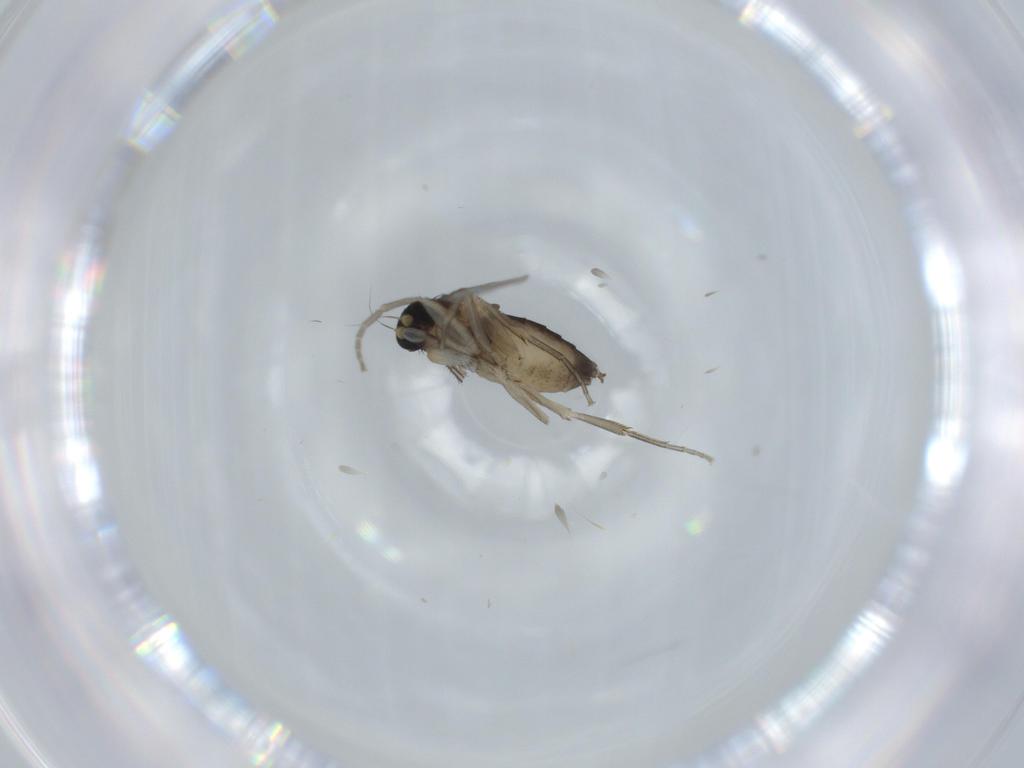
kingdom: Animalia
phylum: Arthropoda
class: Insecta
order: Diptera
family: Phoridae
